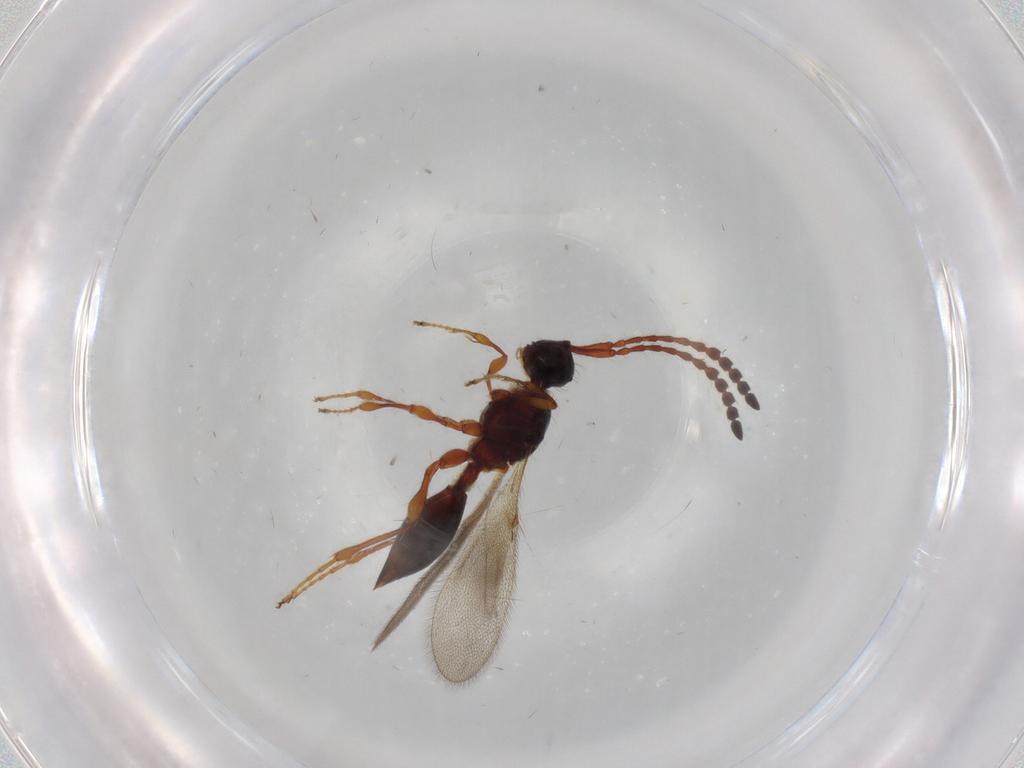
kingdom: Animalia
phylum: Arthropoda
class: Insecta
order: Hymenoptera
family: Diapriidae
